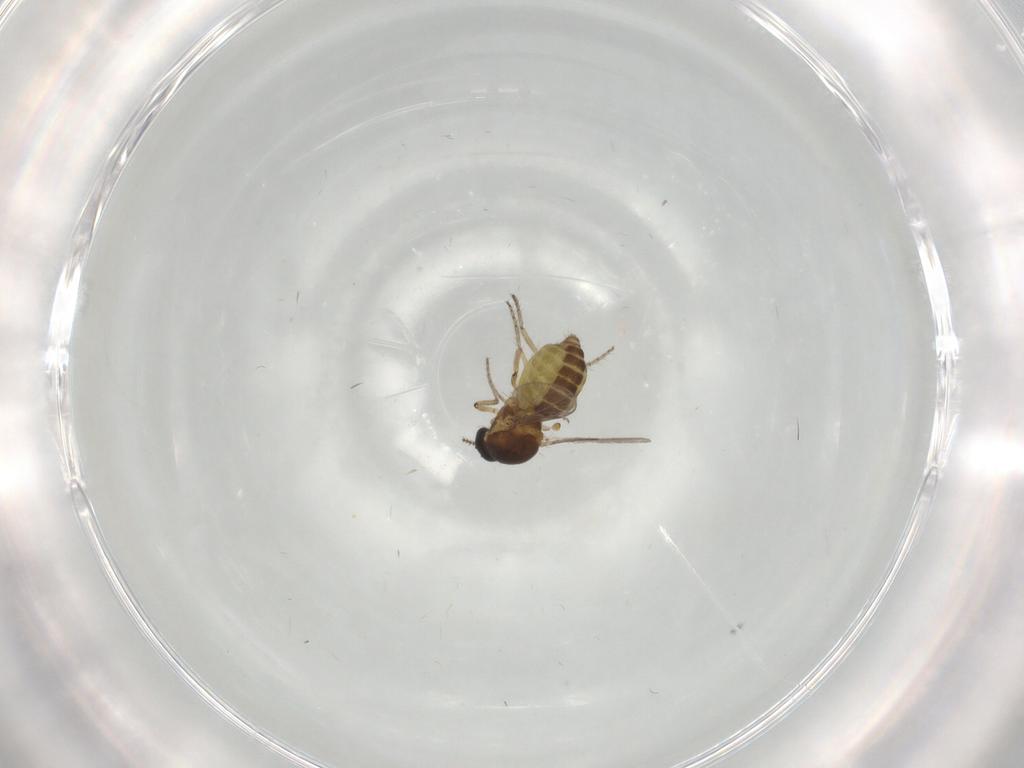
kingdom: Animalia
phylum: Arthropoda
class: Insecta
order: Diptera
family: Ceratopogonidae
